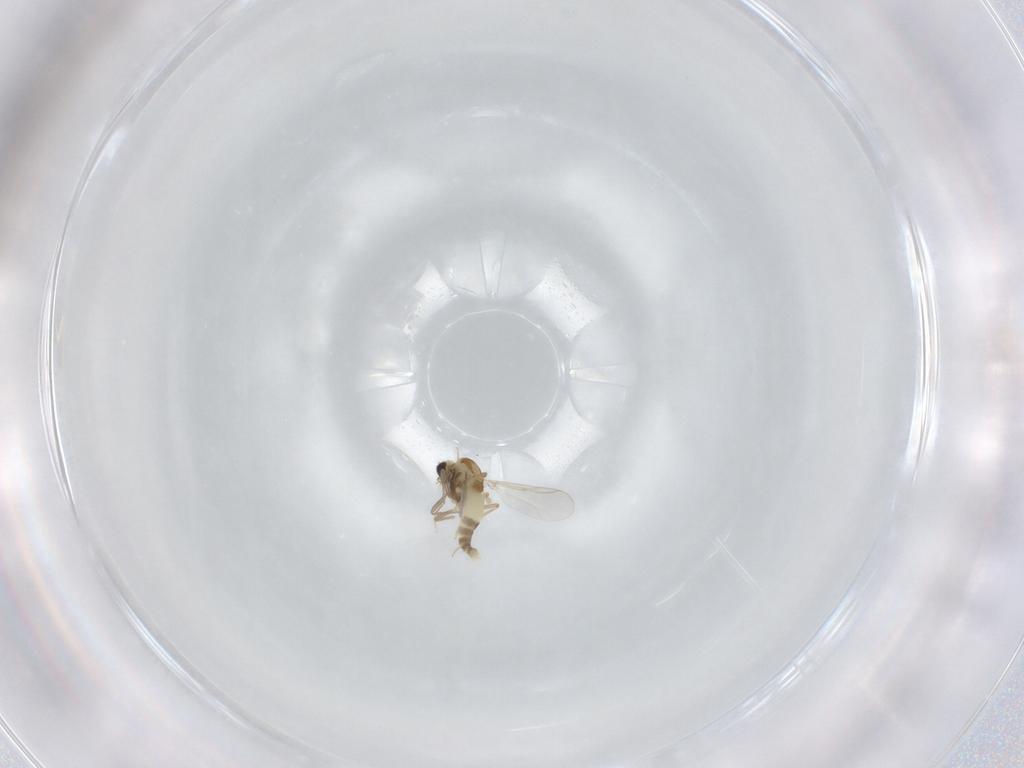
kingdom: Animalia
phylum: Arthropoda
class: Insecta
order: Diptera
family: Chironomidae
